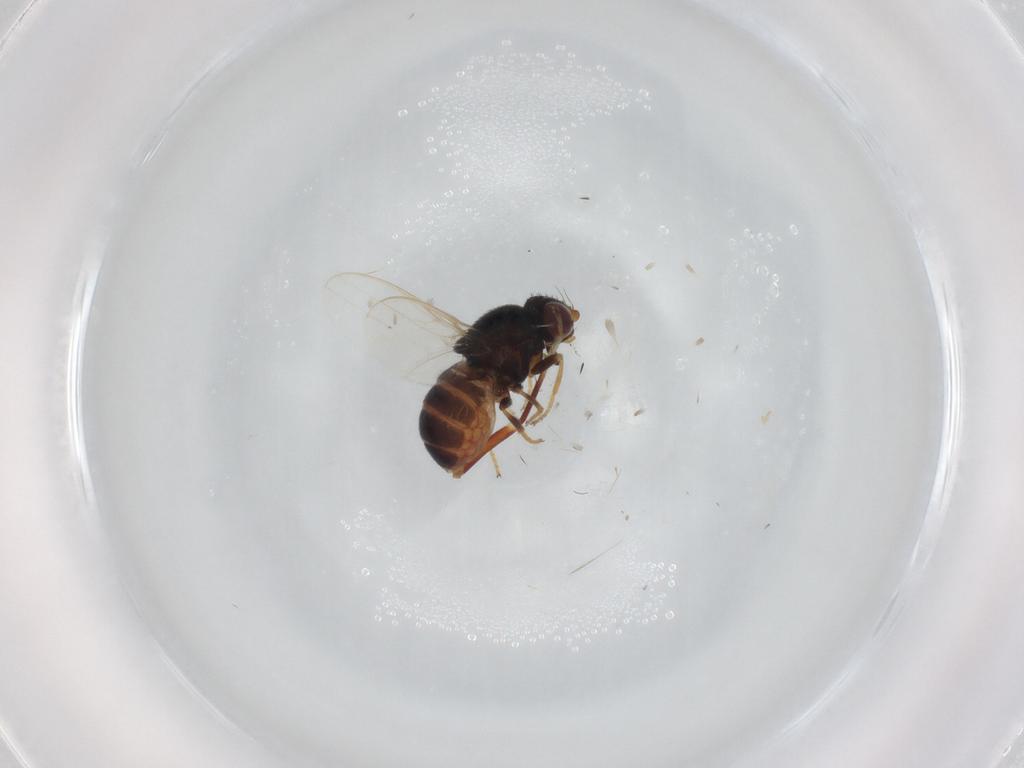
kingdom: Animalia
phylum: Arthropoda
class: Insecta
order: Diptera
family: Chloropidae
